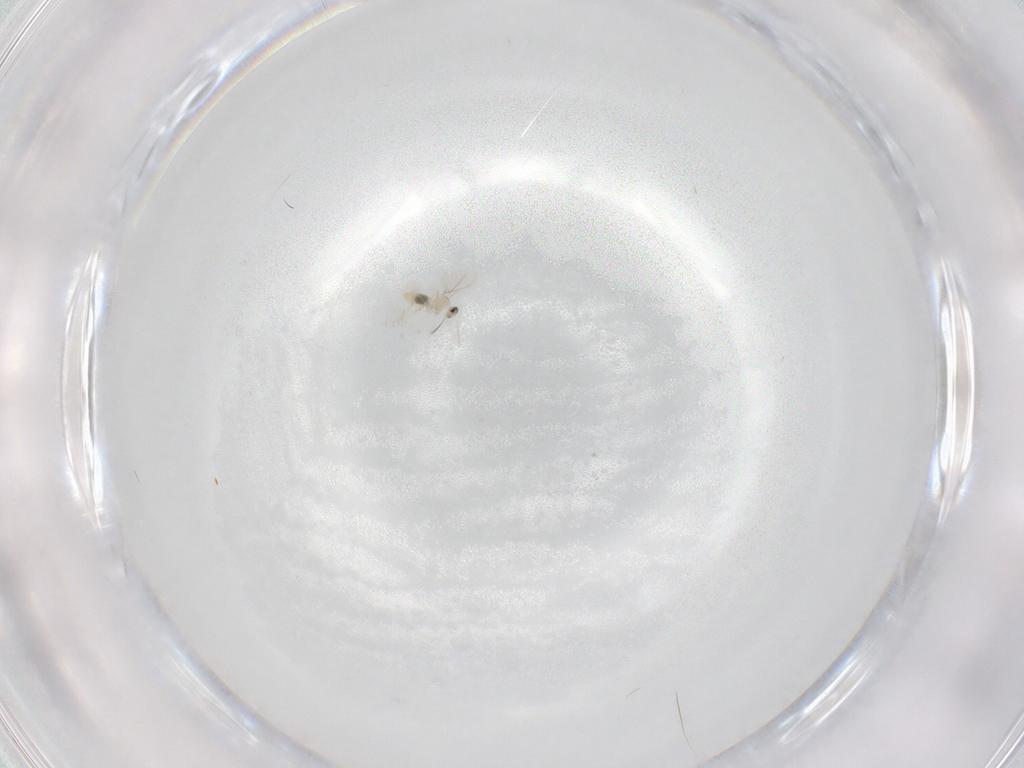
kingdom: Animalia
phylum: Arthropoda
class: Insecta
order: Diptera
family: Cecidomyiidae
